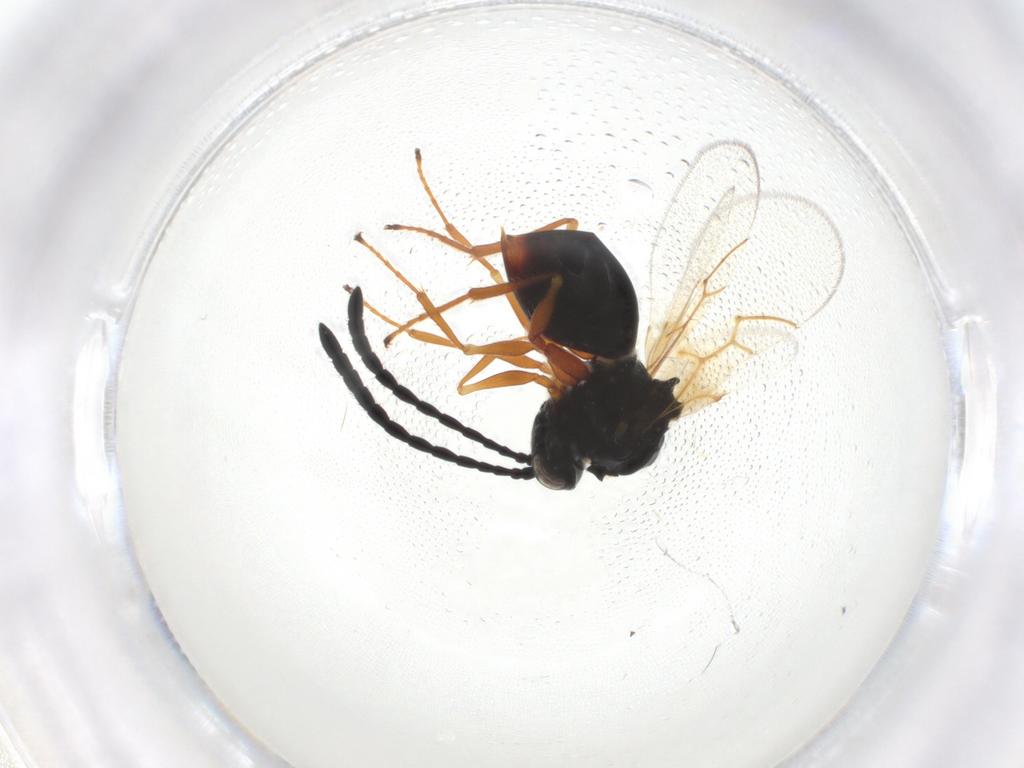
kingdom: Animalia
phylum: Arthropoda
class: Insecta
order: Hymenoptera
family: Figitidae
